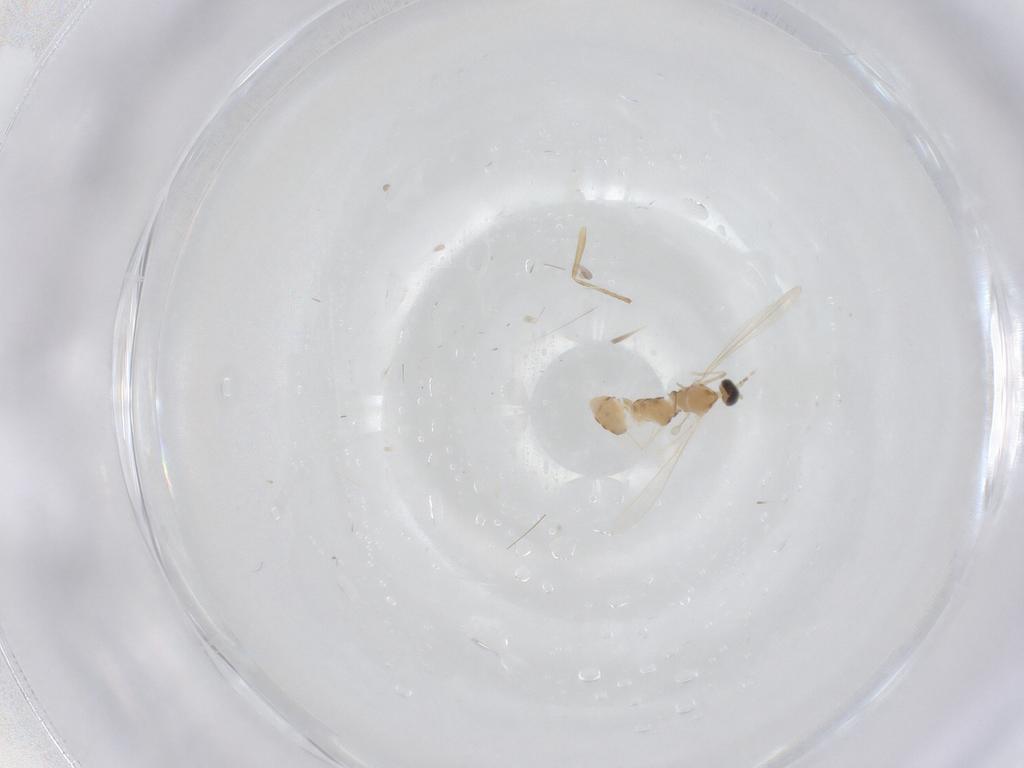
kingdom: Animalia
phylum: Arthropoda
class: Insecta
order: Diptera
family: Cecidomyiidae
